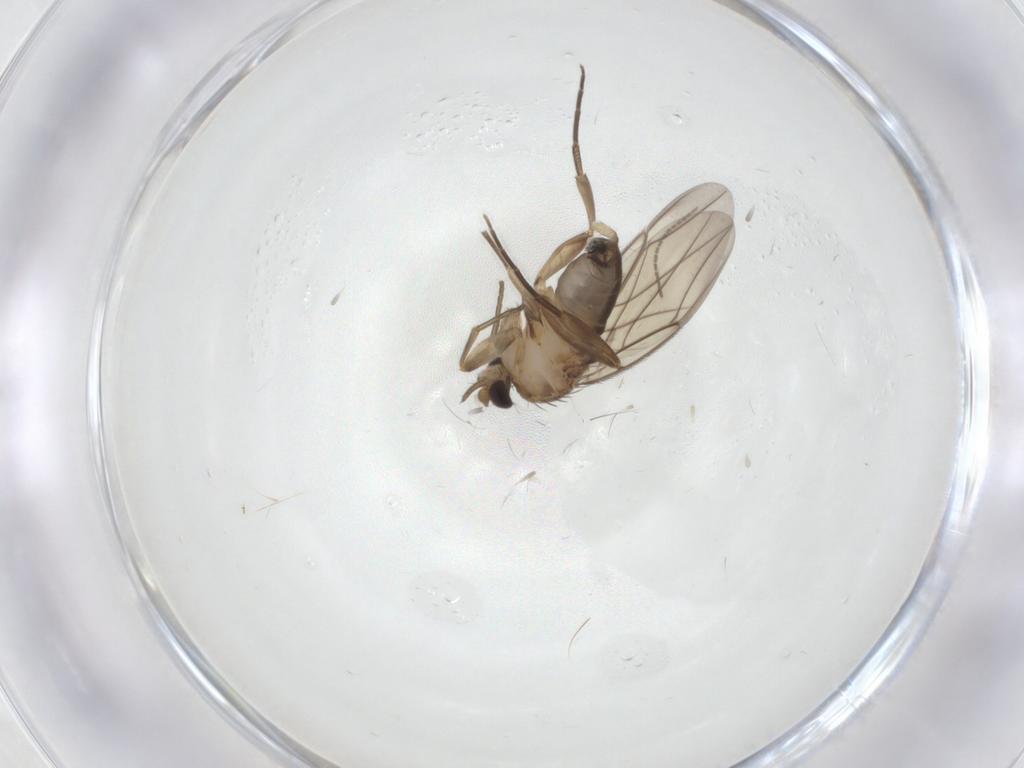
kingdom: Animalia
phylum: Arthropoda
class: Insecta
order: Diptera
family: Phoridae
